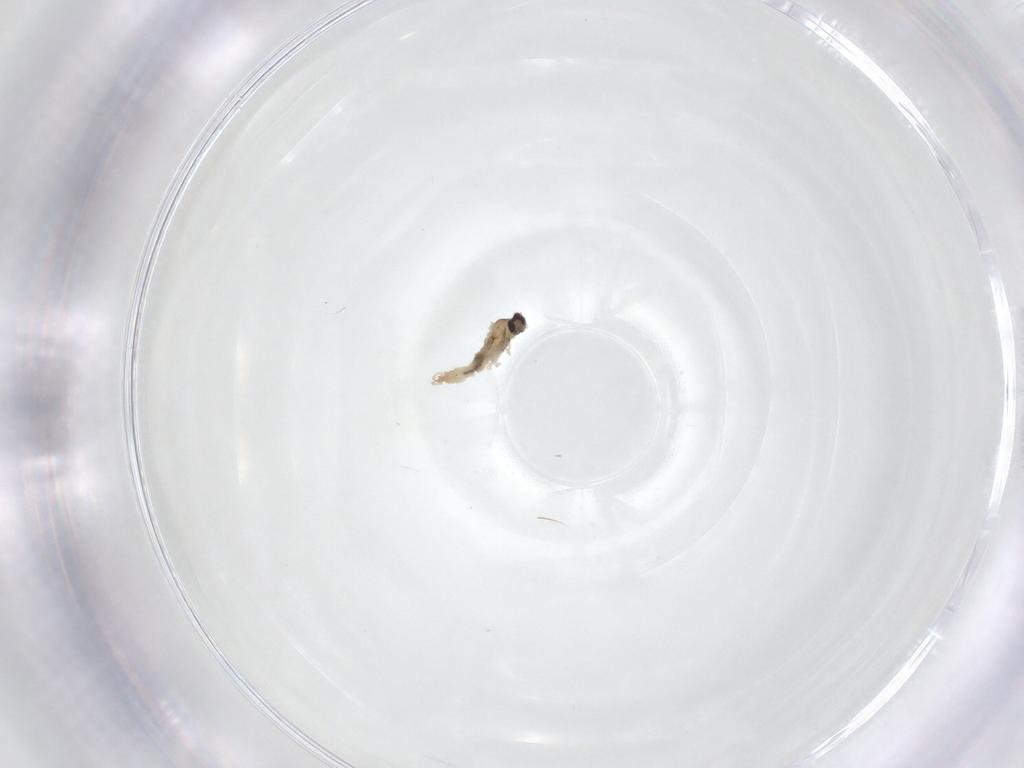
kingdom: Animalia
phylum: Arthropoda
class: Insecta
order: Diptera
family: Cecidomyiidae
